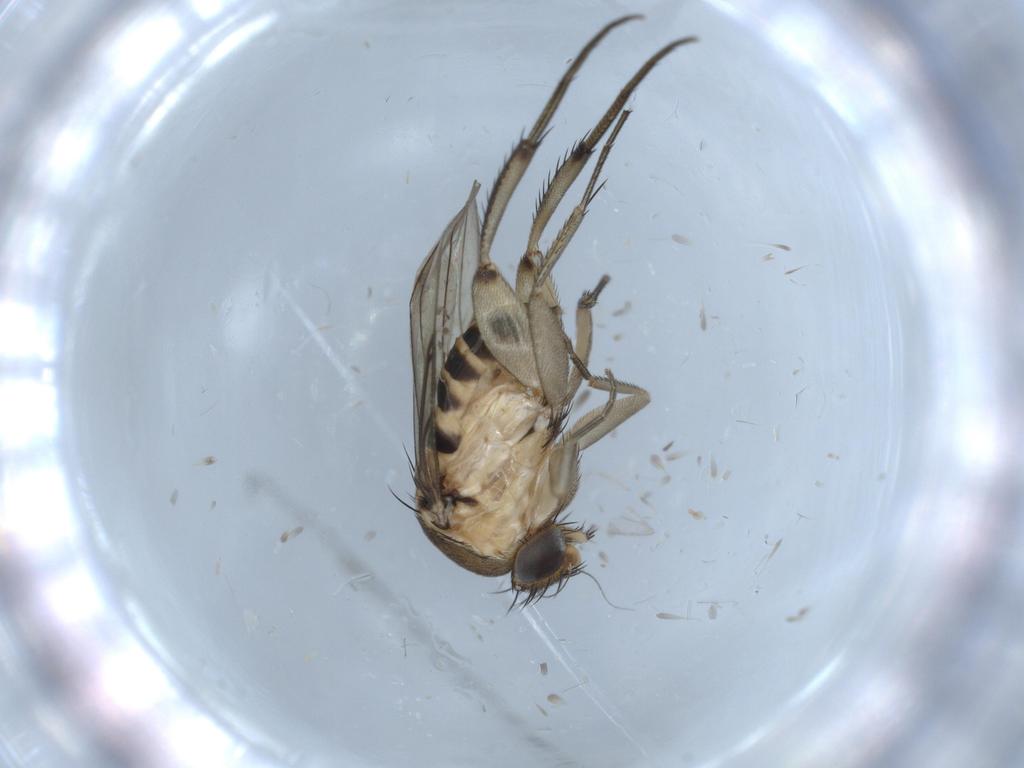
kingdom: Animalia
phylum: Arthropoda
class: Insecta
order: Diptera
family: Phoridae
